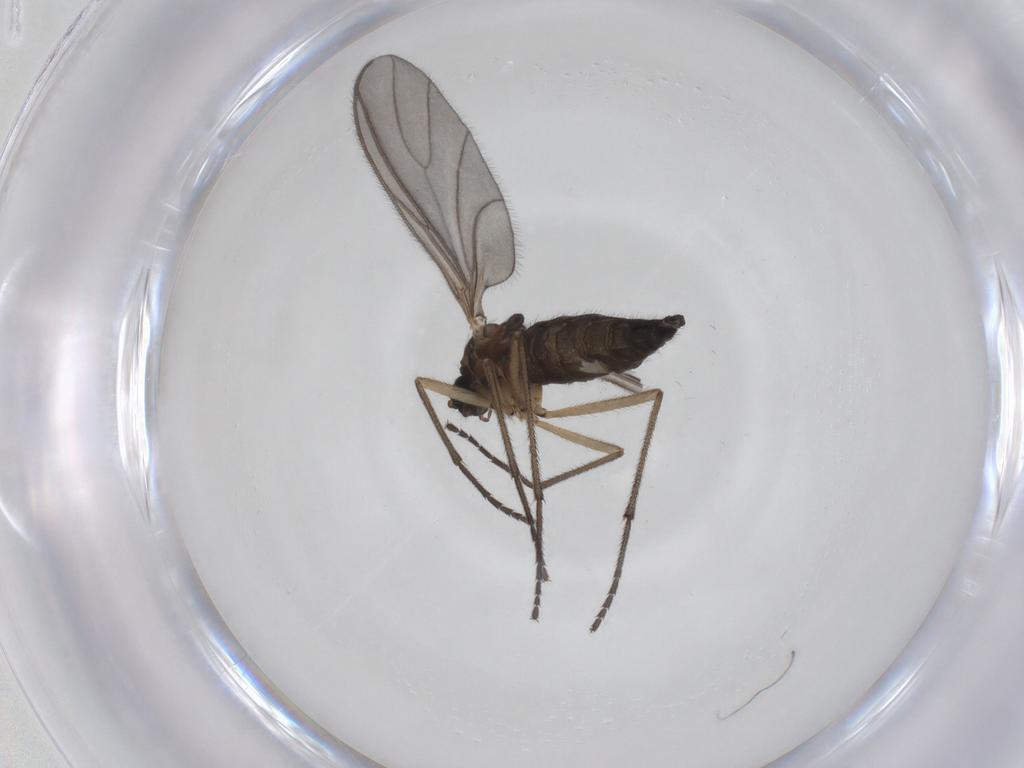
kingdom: Animalia
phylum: Arthropoda
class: Insecta
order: Diptera
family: Sciaridae
